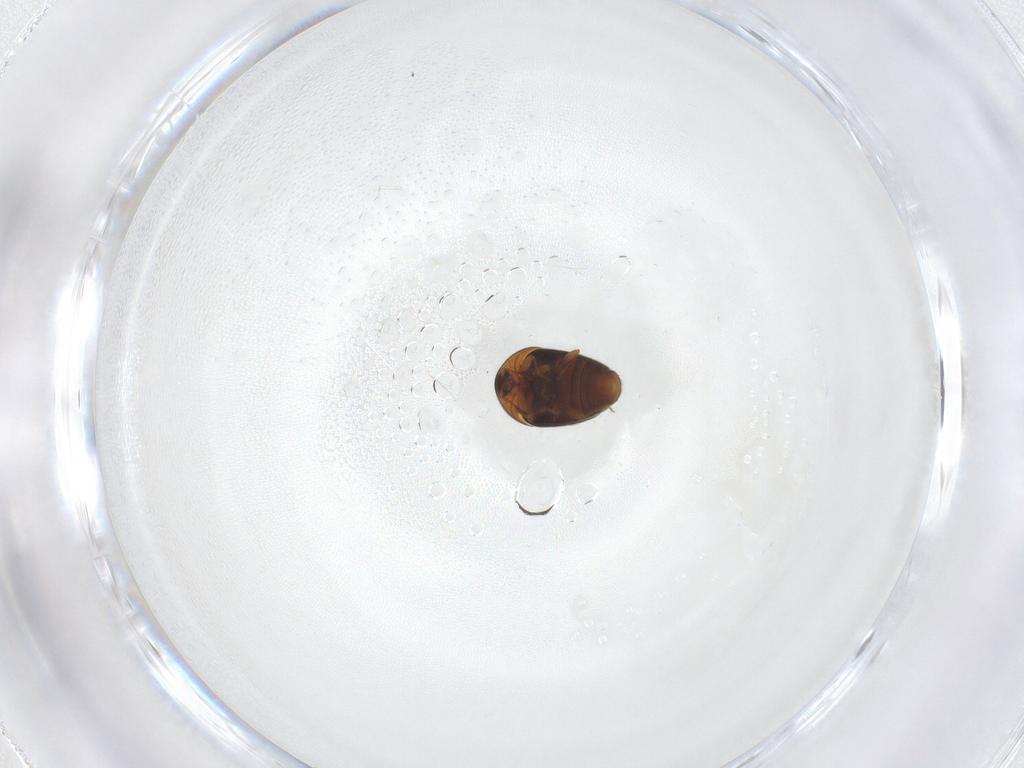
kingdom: Animalia
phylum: Arthropoda
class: Insecta
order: Coleoptera
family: Corylophidae
